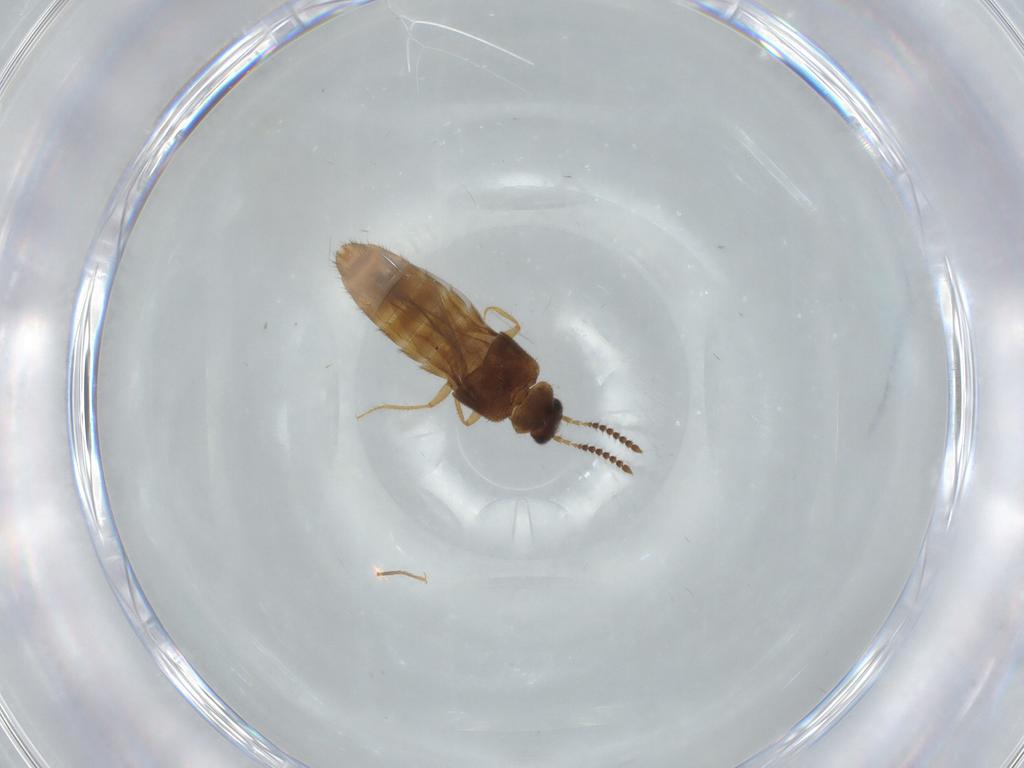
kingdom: Animalia
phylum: Arthropoda
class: Insecta
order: Coleoptera
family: Staphylinidae
